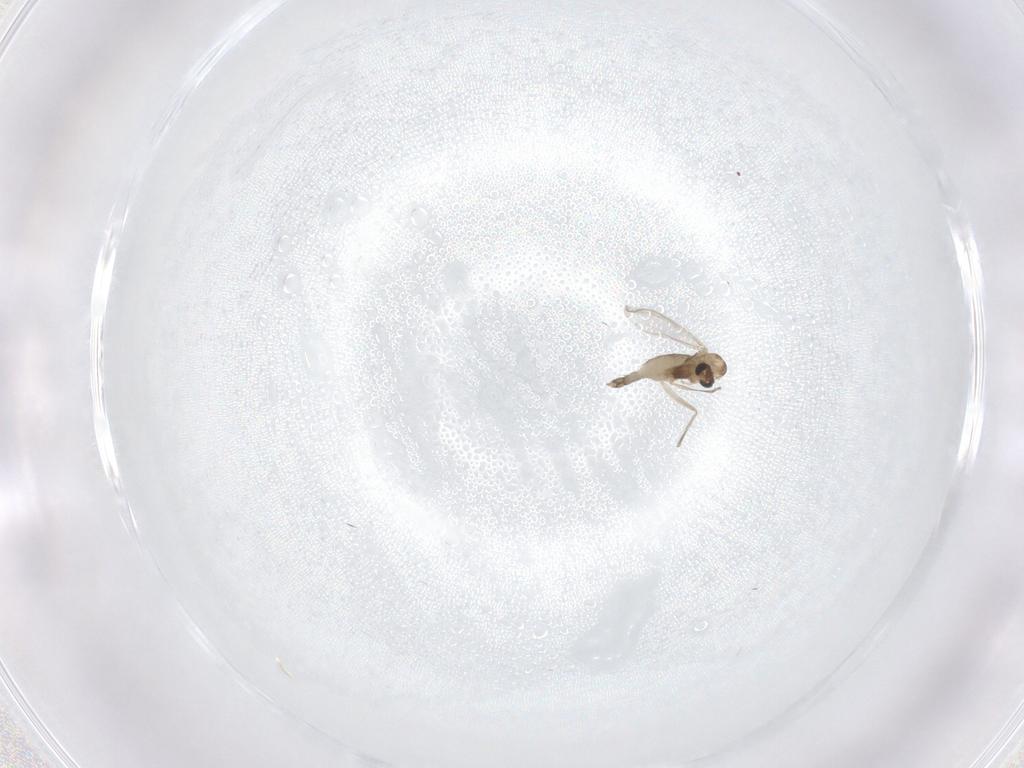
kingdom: Animalia
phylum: Arthropoda
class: Insecta
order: Diptera
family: Chironomidae
